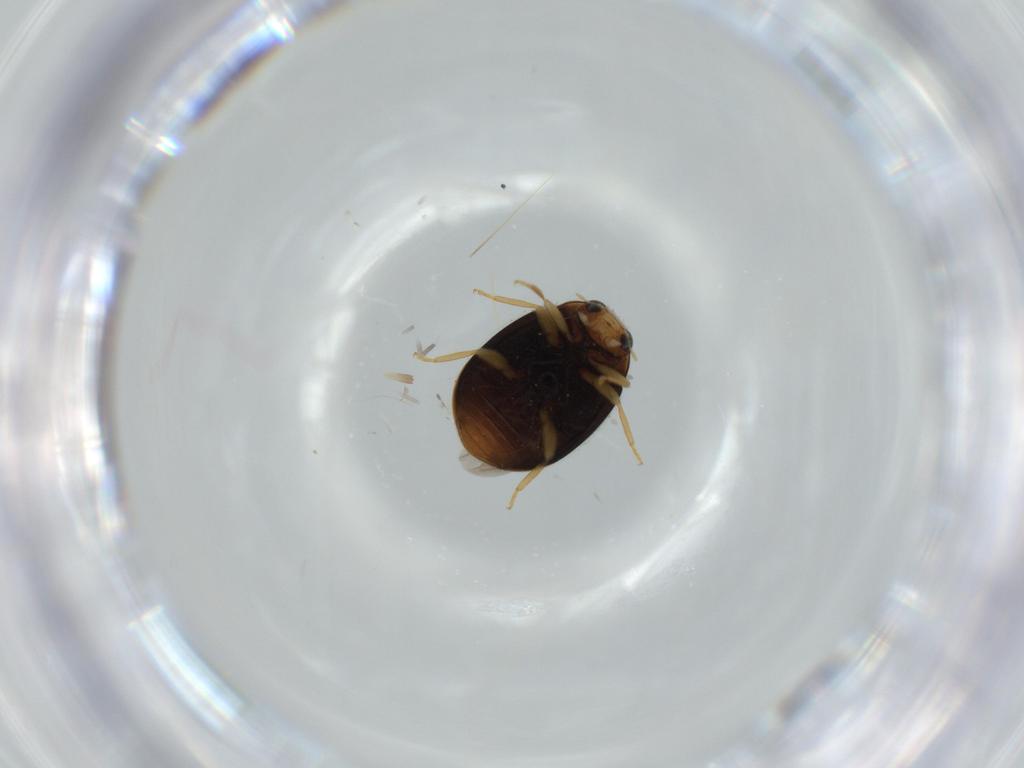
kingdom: Animalia
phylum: Arthropoda
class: Insecta
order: Coleoptera
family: Coccinellidae
